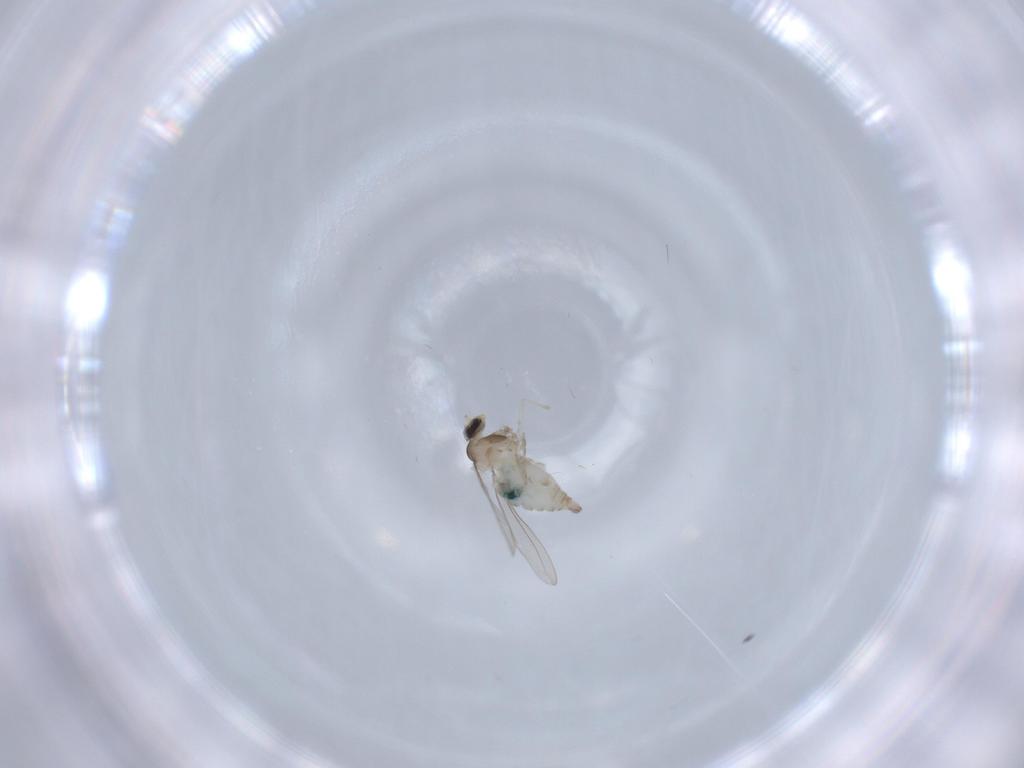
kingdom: Animalia
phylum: Arthropoda
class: Insecta
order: Diptera
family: Cecidomyiidae
